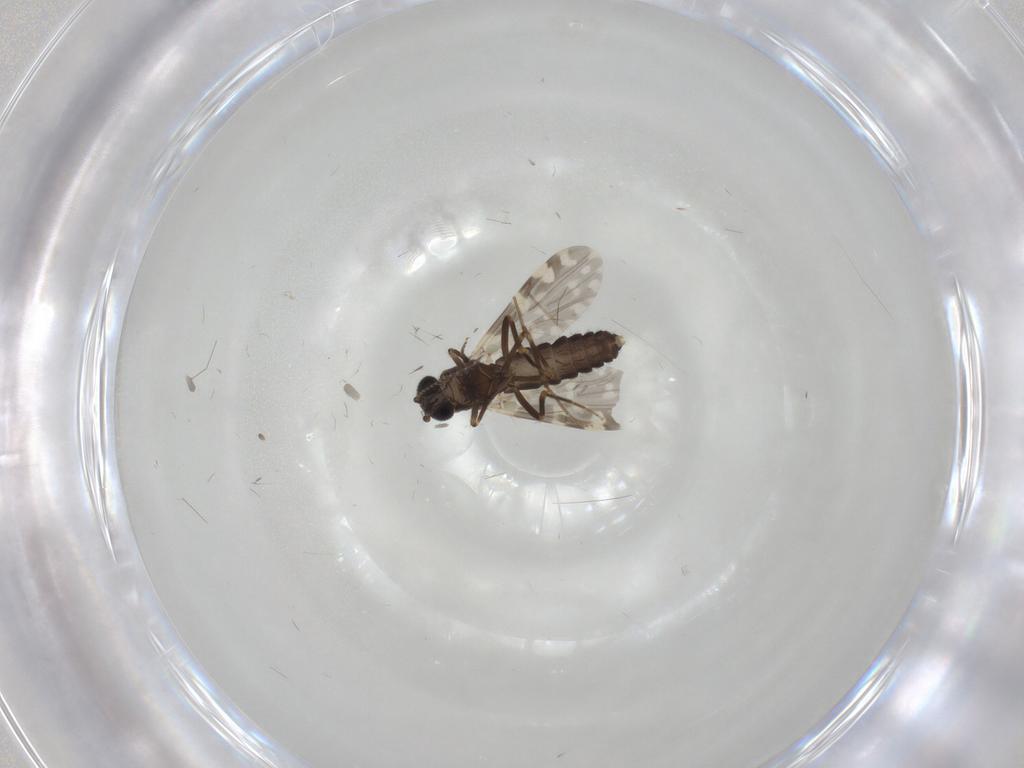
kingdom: Animalia
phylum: Arthropoda
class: Insecta
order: Diptera
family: Ceratopogonidae
